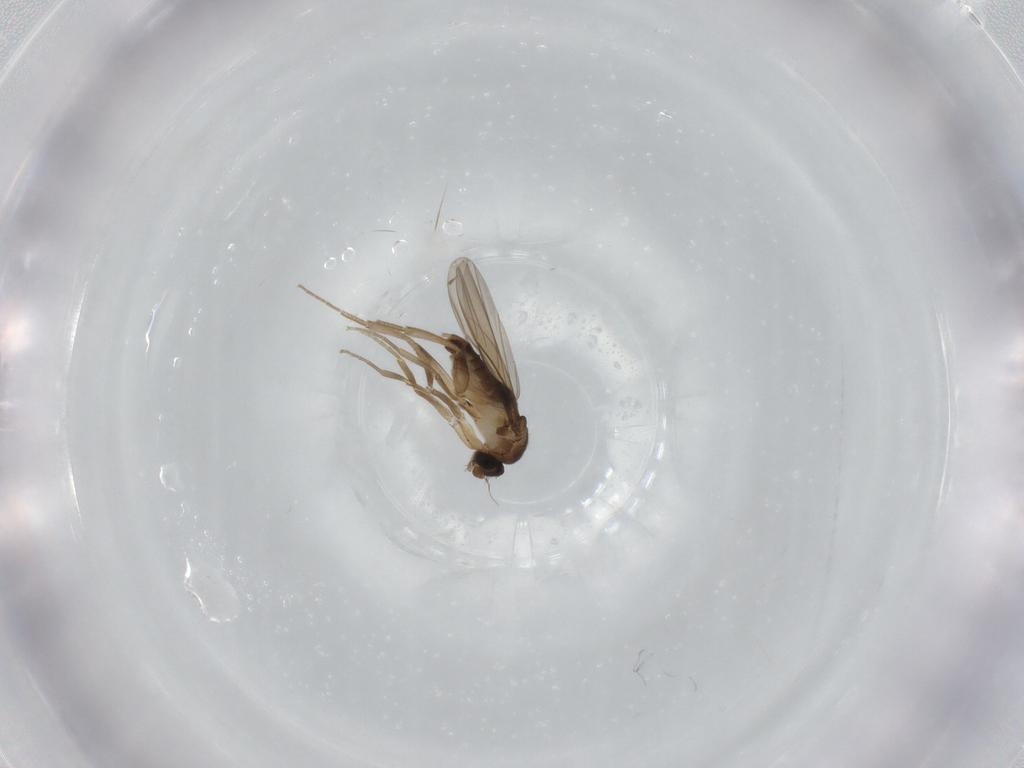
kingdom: Animalia
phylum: Arthropoda
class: Insecta
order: Diptera
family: Phoridae
